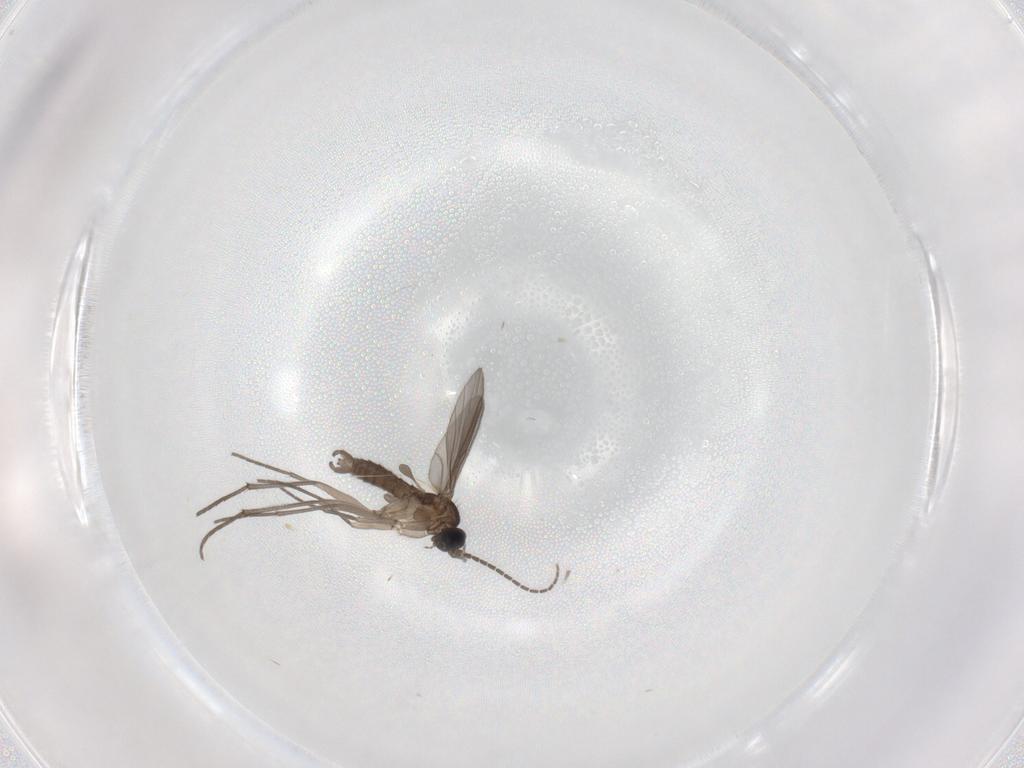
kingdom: Animalia
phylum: Arthropoda
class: Insecta
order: Diptera
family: Sciaridae
